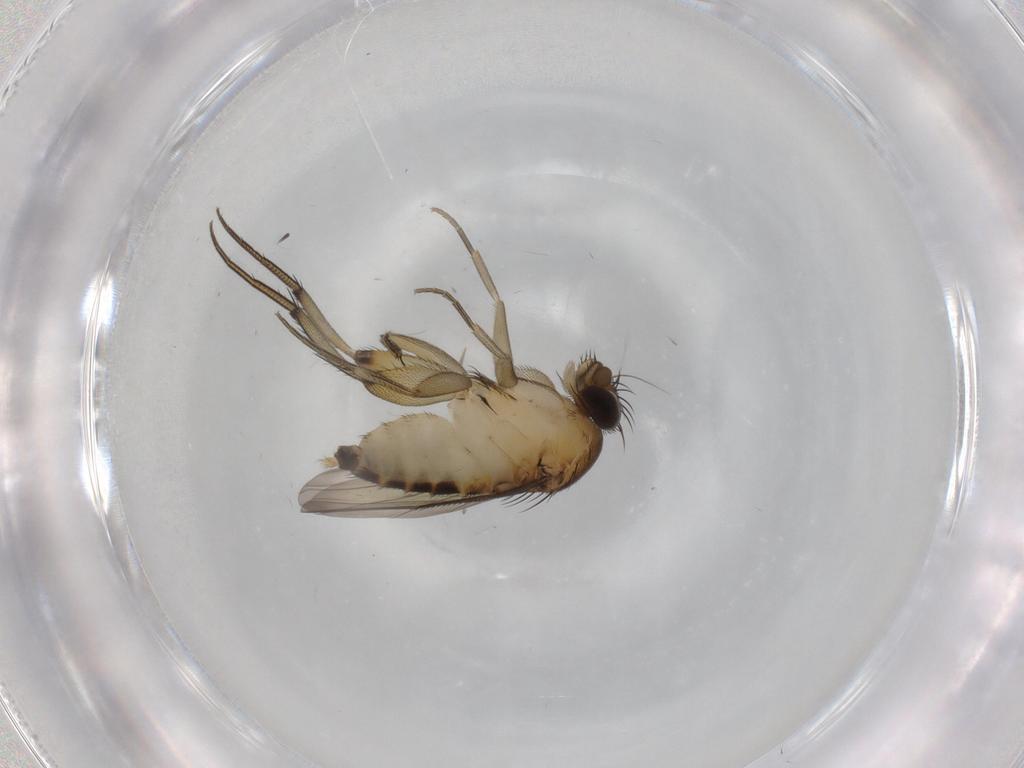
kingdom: Animalia
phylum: Arthropoda
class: Insecta
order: Diptera
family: Phoridae
